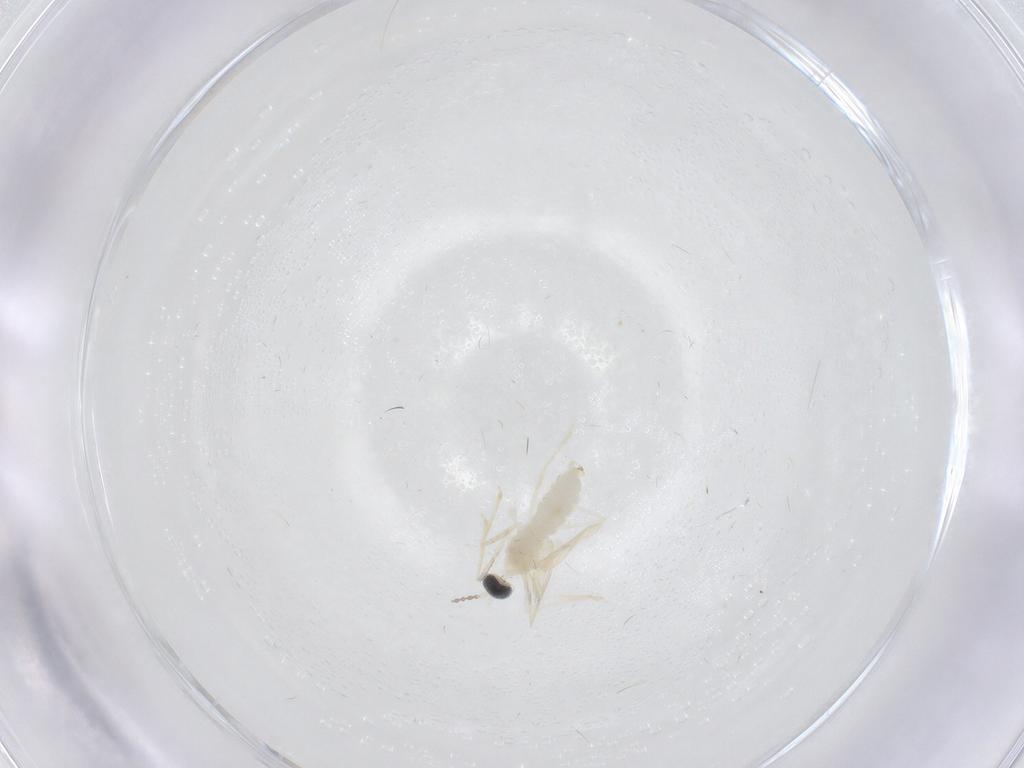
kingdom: Animalia
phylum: Arthropoda
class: Insecta
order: Diptera
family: Cecidomyiidae
